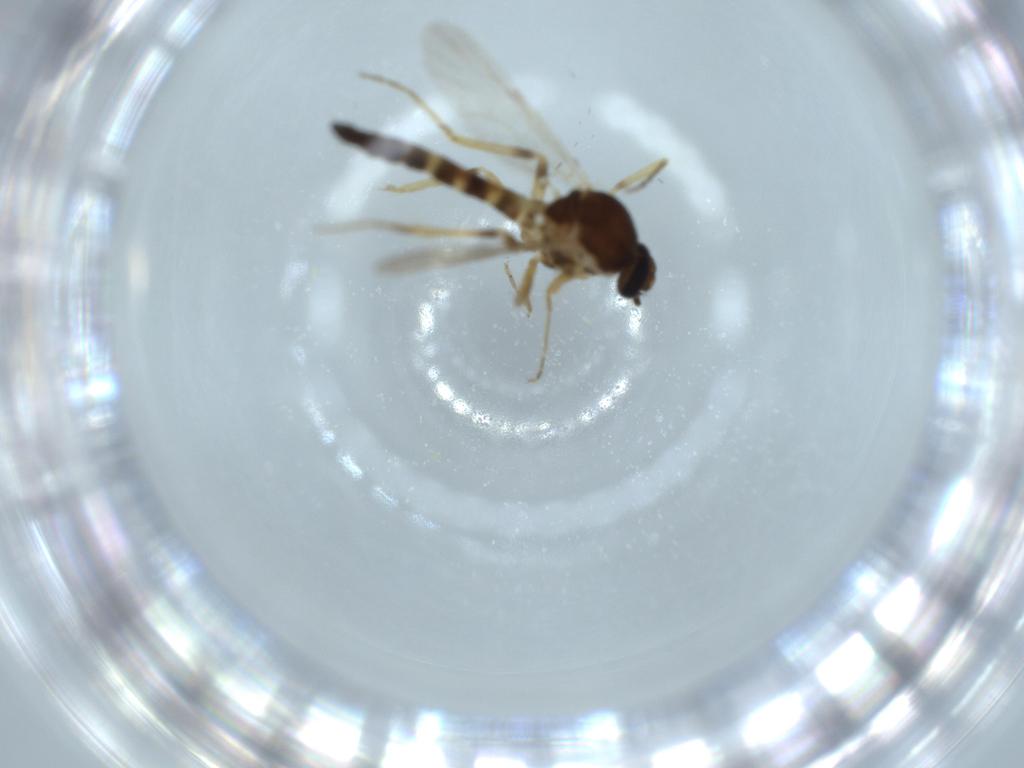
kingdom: Animalia
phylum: Arthropoda
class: Insecta
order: Diptera
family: Ceratopogonidae
